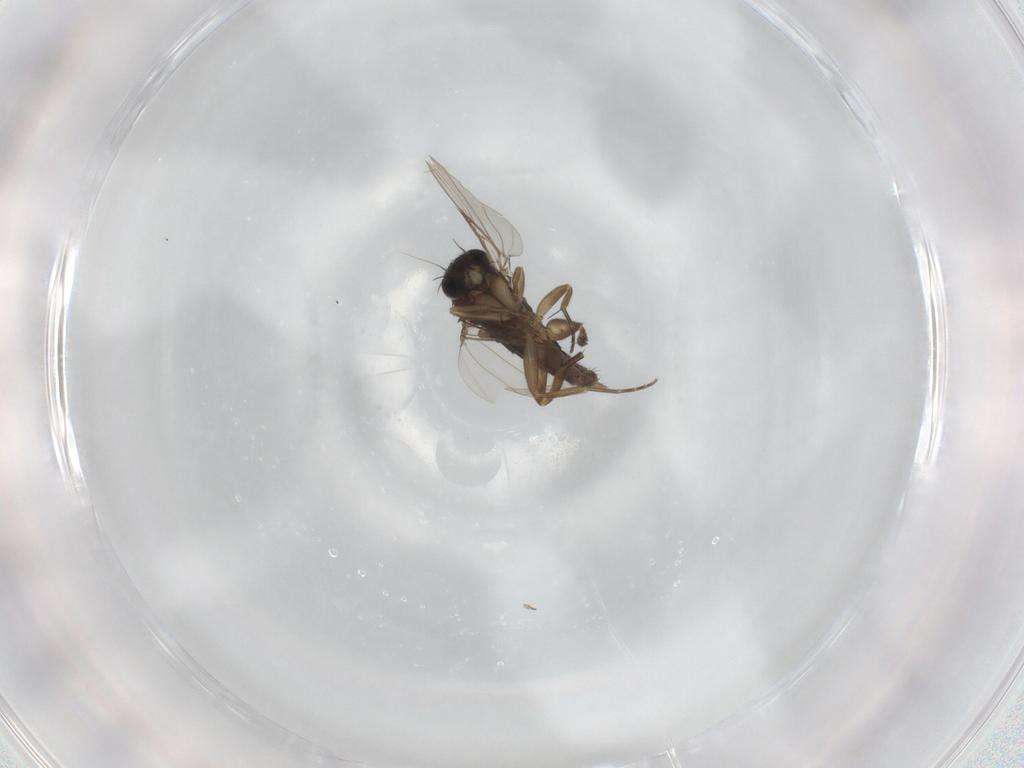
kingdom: Animalia
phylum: Arthropoda
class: Insecta
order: Diptera
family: Phoridae
